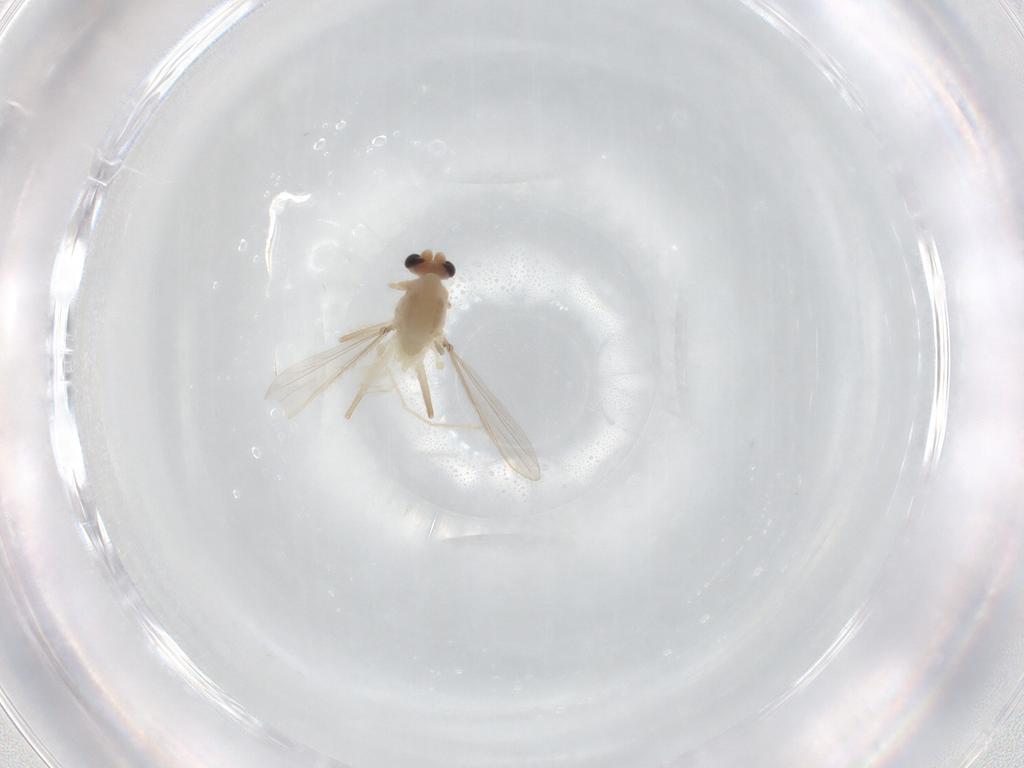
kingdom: Animalia
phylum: Arthropoda
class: Insecta
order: Diptera
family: Chironomidae
